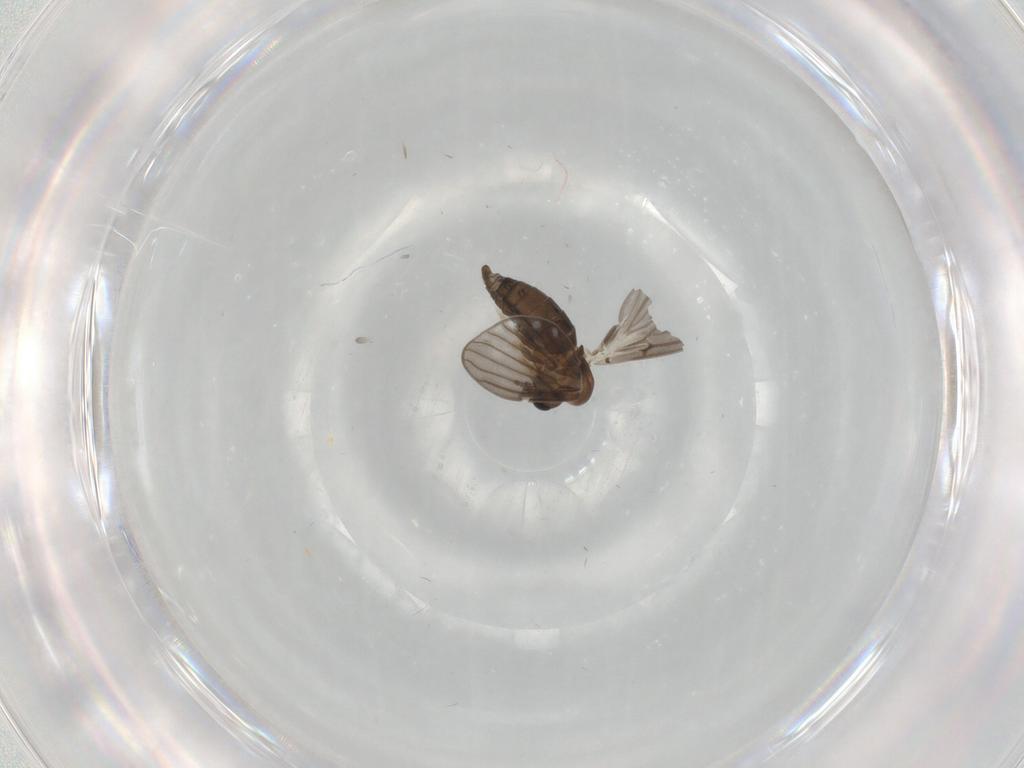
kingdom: Animalia
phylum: Arthropoda
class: Insecta
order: Diptera
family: Psychodidae
